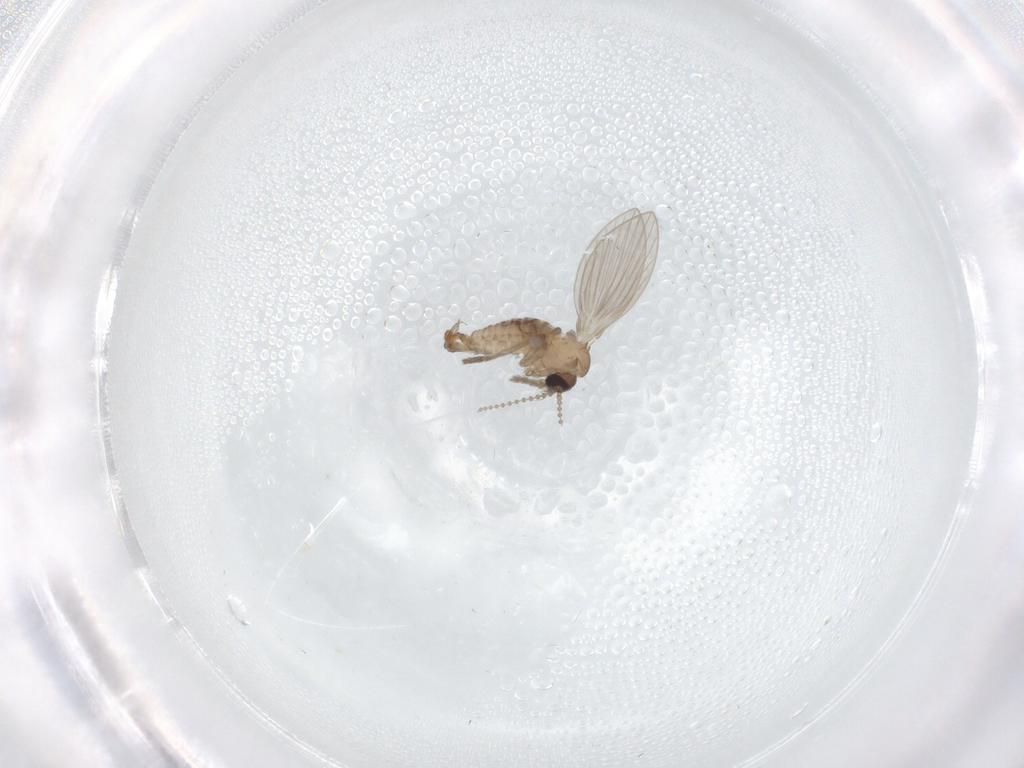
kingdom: Animalia
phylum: Arthropoda
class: Insecta
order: Diptera
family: Psychodidae
